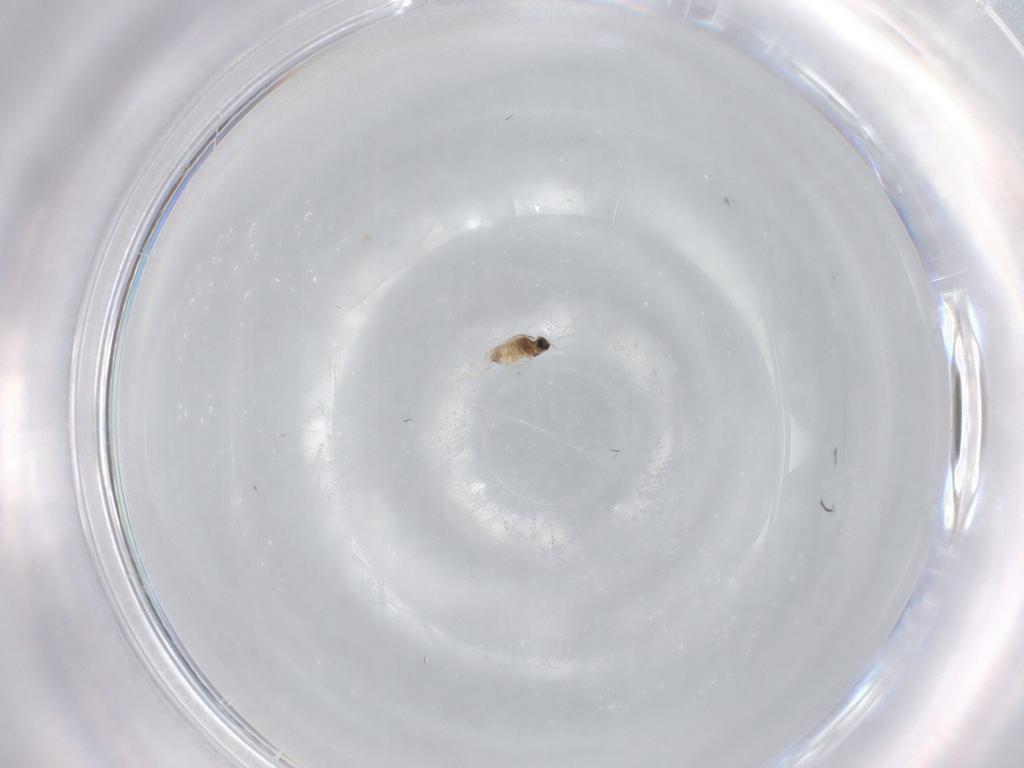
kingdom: Animalia
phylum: Arthropoda
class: Insecta
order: Diptera
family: Cecidomyiidae
